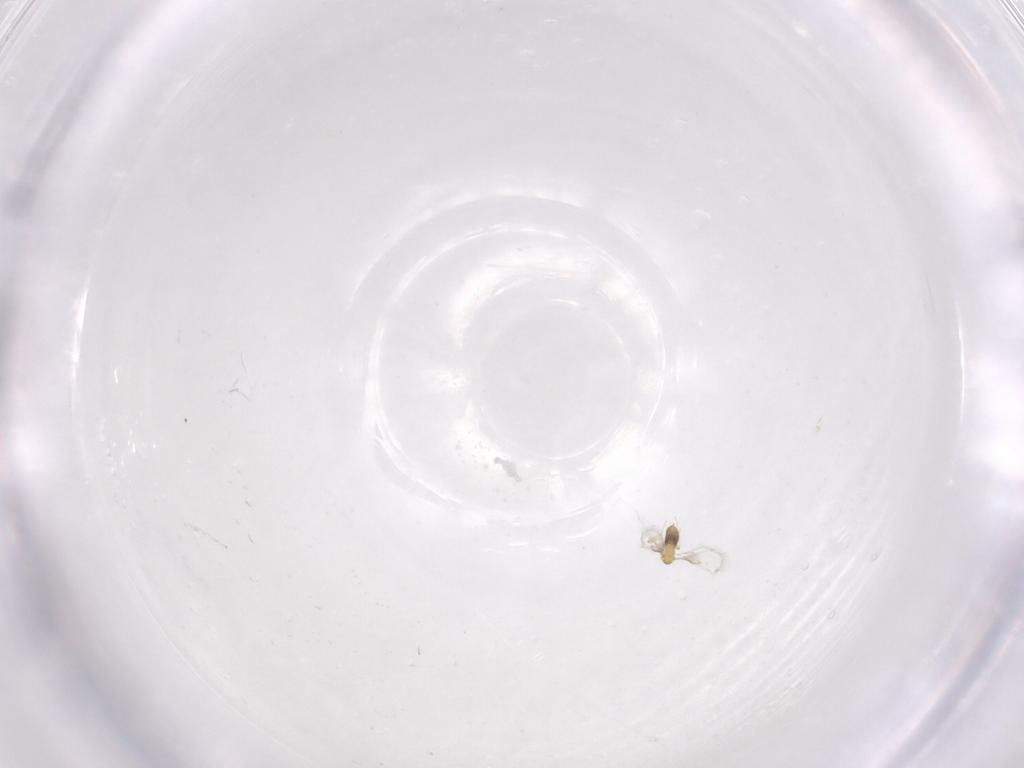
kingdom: Animalia
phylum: Arthropoda
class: Insecta
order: Hymenoptera
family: Trichogrammatidae
